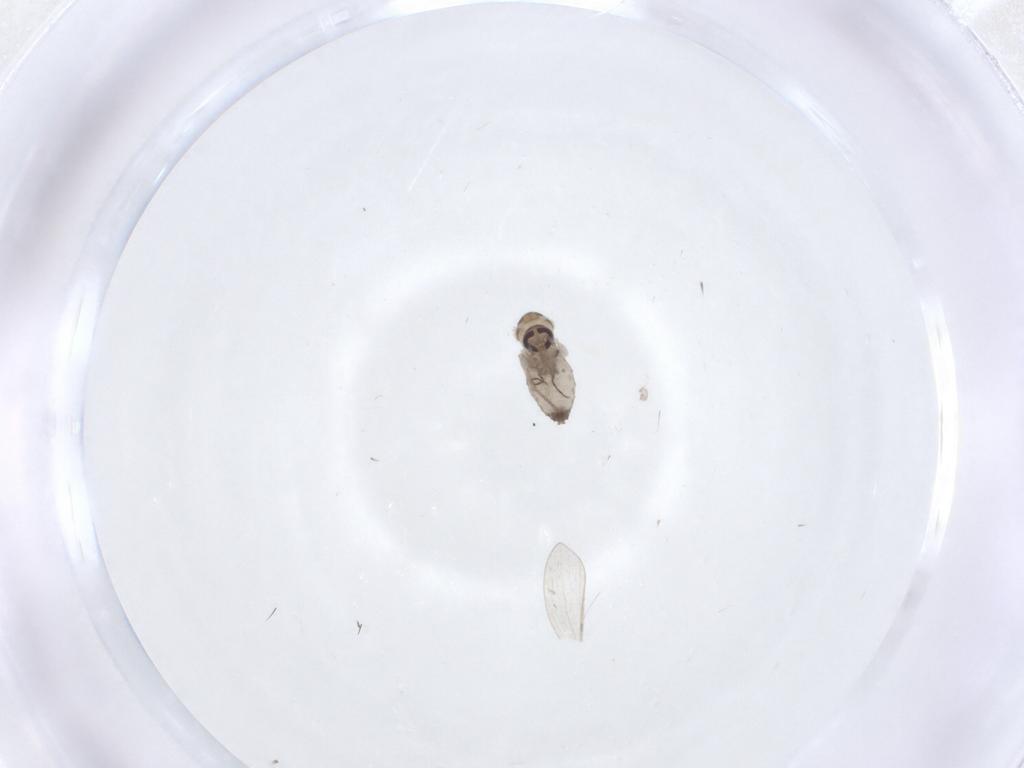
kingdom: Animalia
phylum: Arthropoda
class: Insecta
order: Diptera
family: Psychodidae
